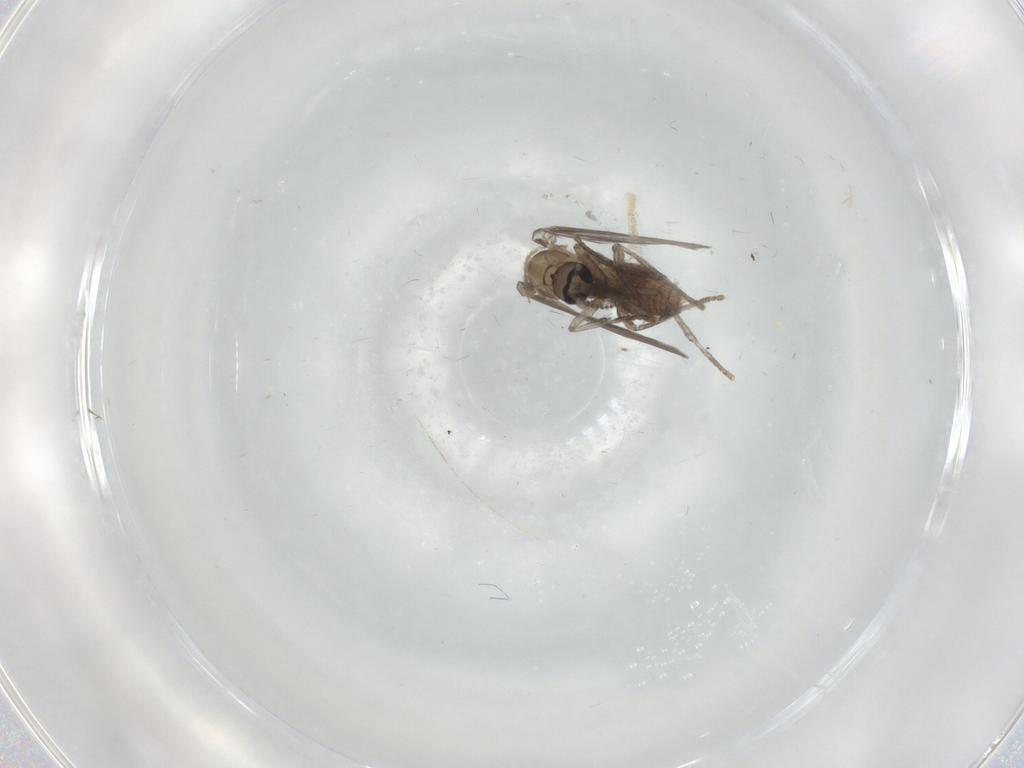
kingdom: Animalia
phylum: Arthropoda
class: Insecta
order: Diptera
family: Psychodidae
